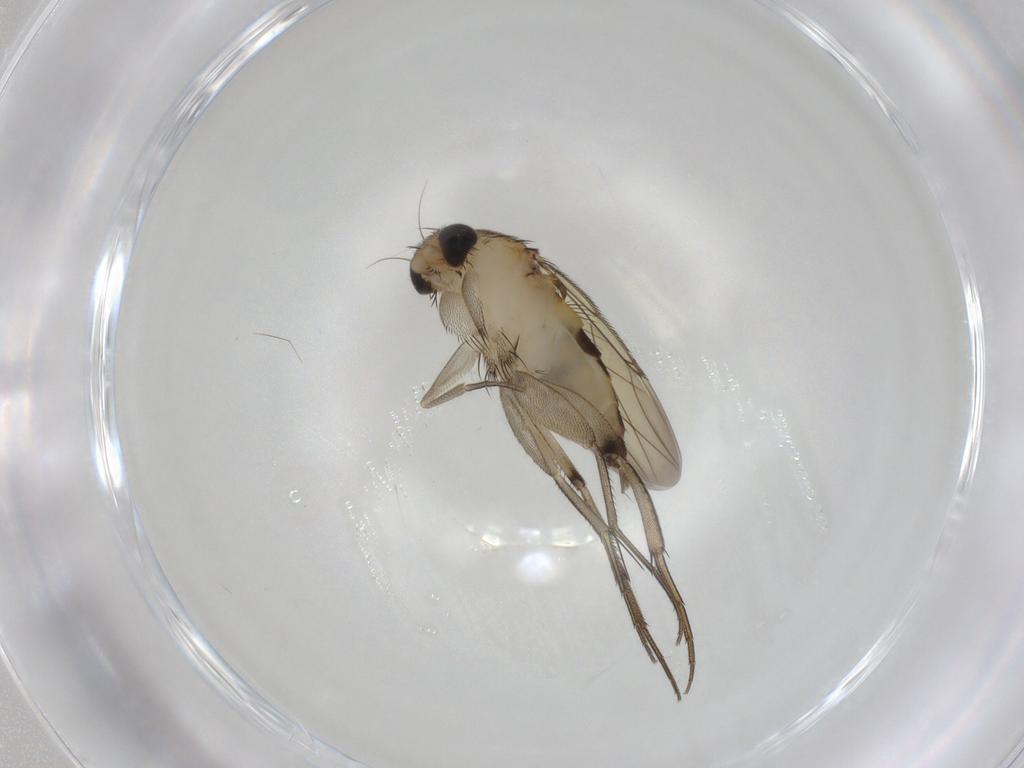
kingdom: Animalia
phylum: Arthropoda
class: Insecta
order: Diptera
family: Phoridae
